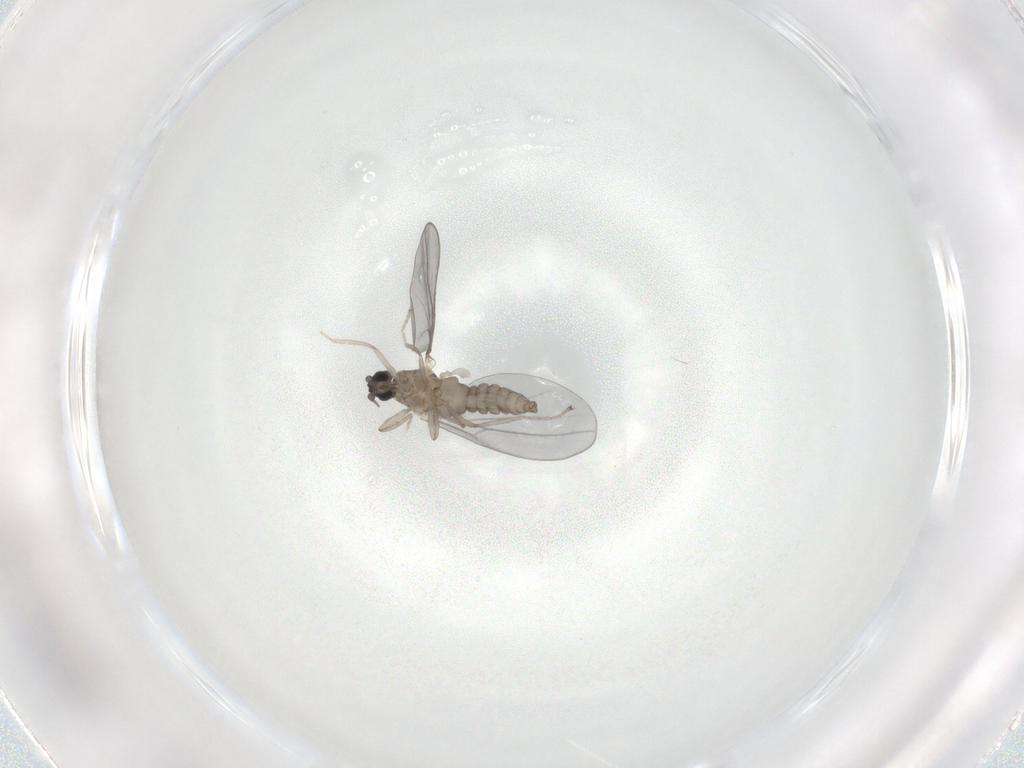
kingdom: Animalia
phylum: Arthropoda
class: Insecta
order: Diptera
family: Cecidomyiidae
